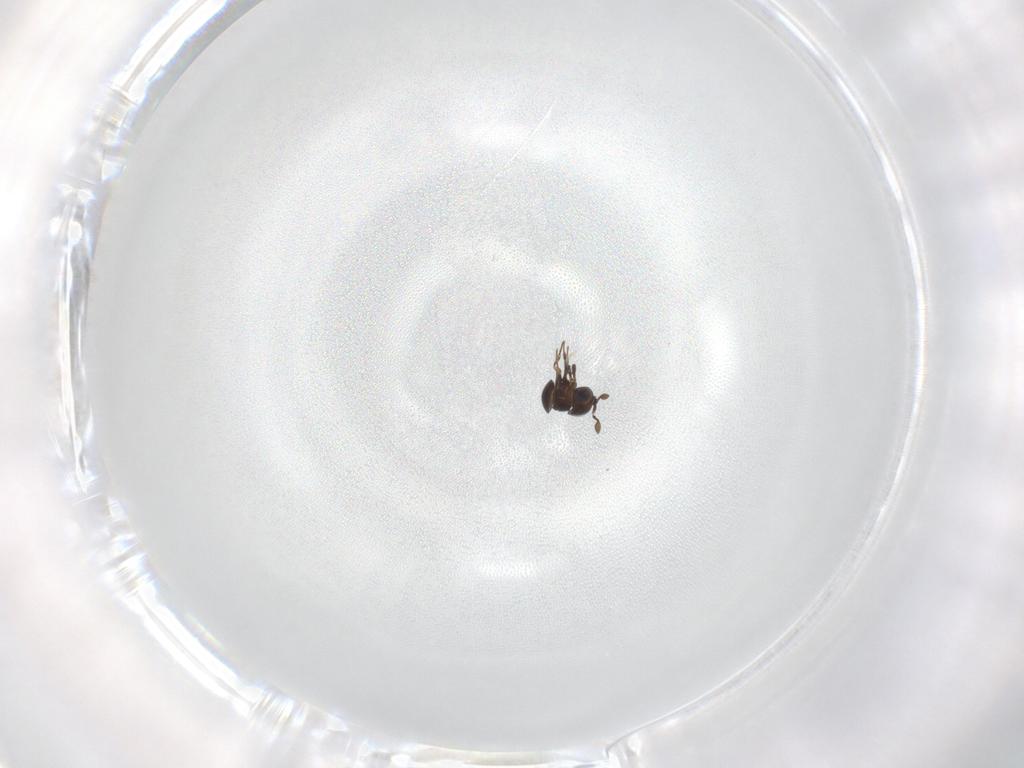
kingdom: Animalia
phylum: Arthropoda
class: Insecta
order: Hymenoptera
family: Scelionidae
